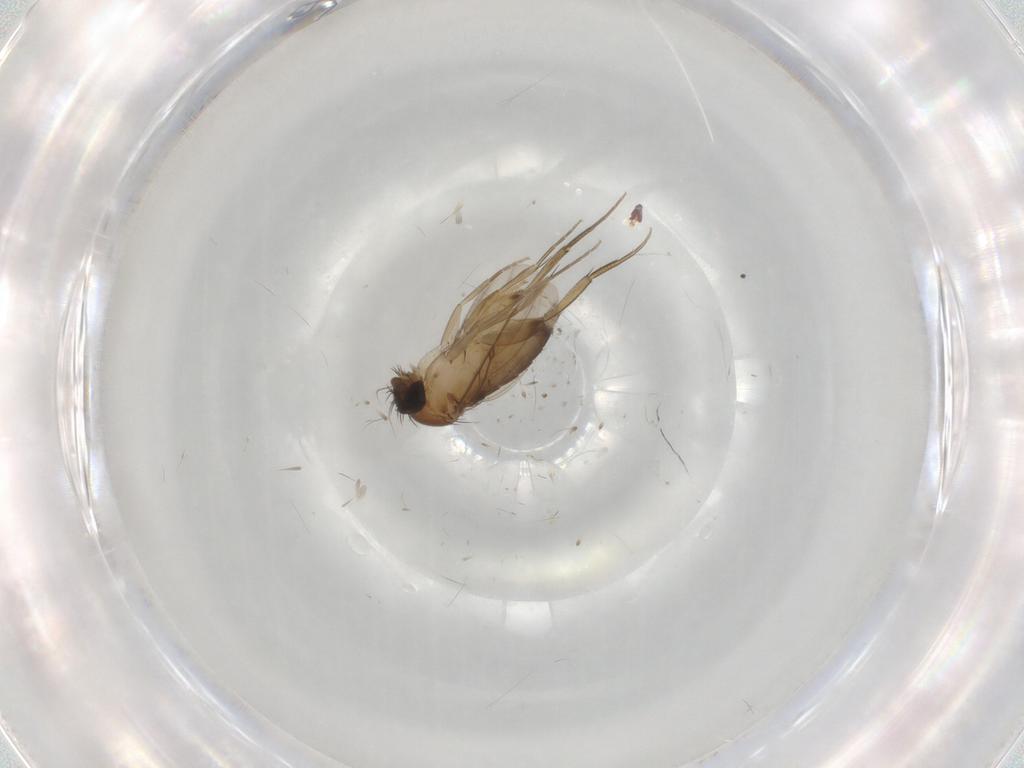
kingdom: Animalia
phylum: Arthropoda
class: Insecta
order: Diptera
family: Phoridae
